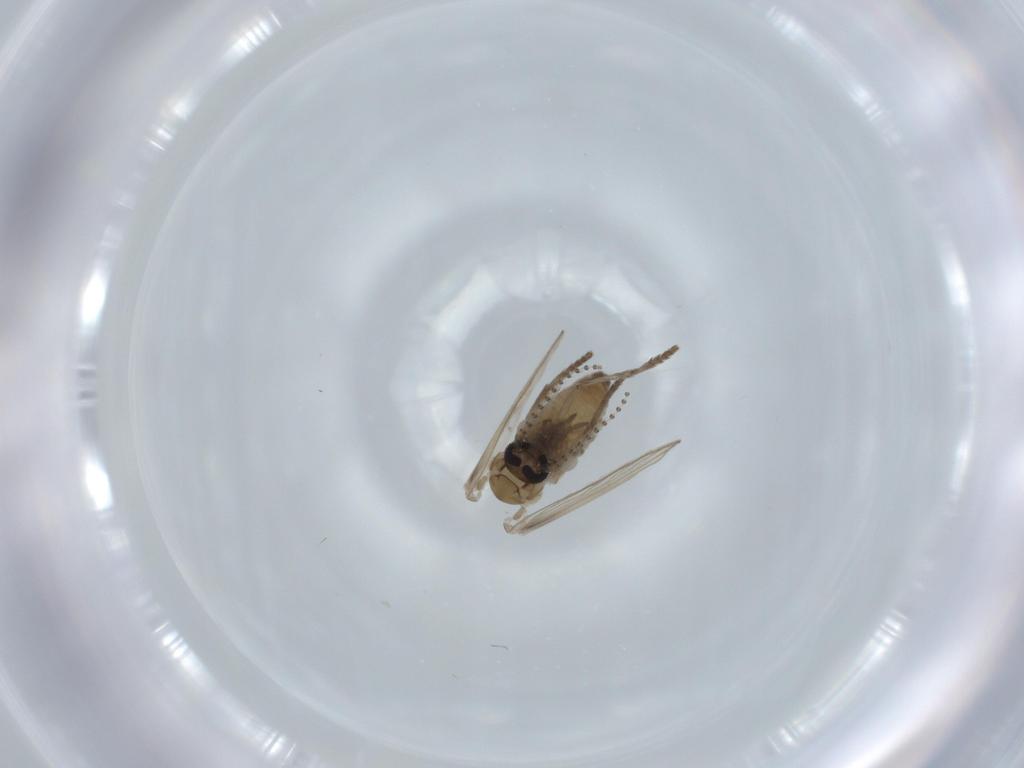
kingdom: Animalia
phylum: Arthropoda
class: Insecta
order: Diptera
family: Psychodidae
